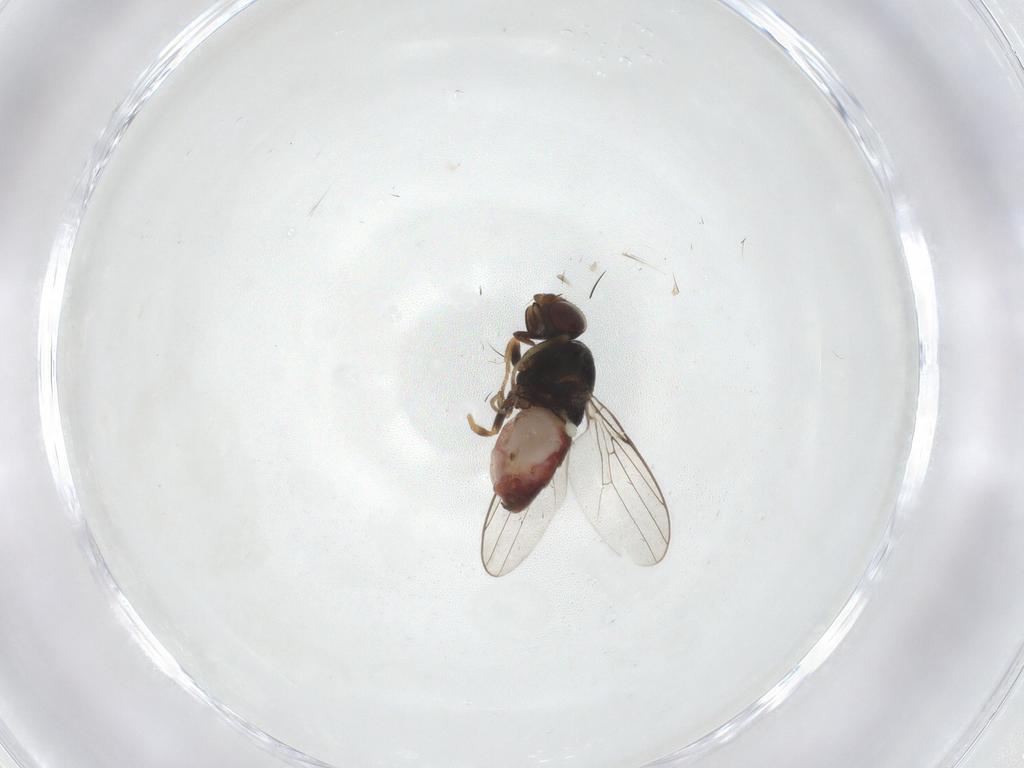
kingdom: Animalia
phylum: Arthropoda
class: Insecta
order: Diptera
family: Chloropidae
